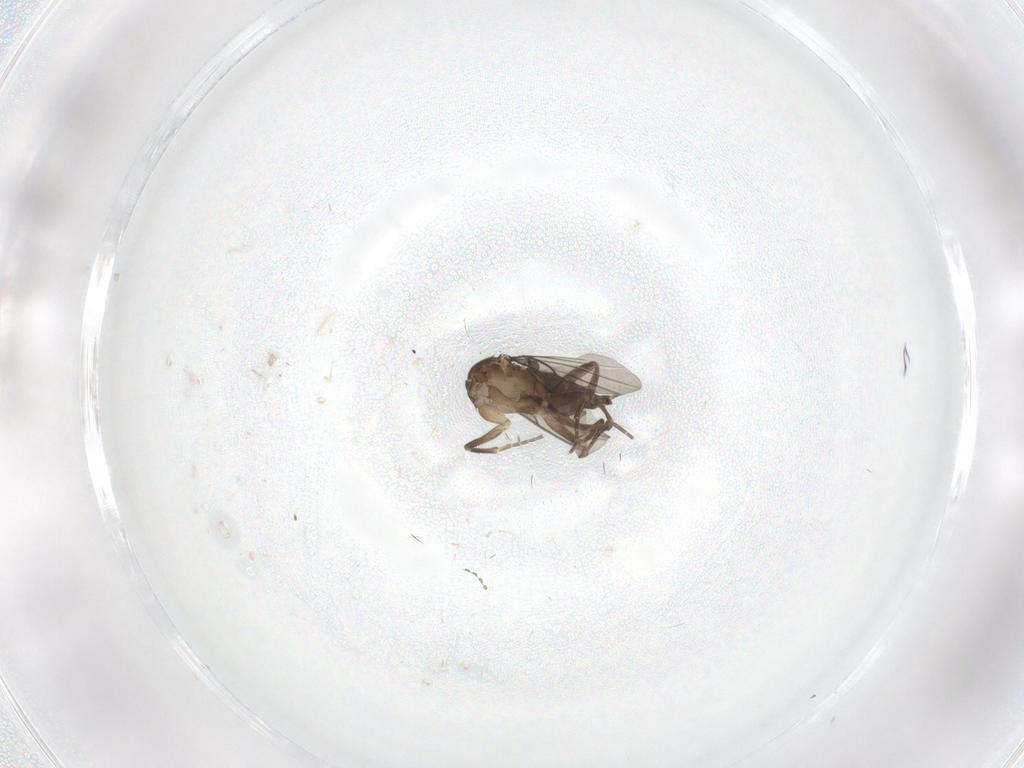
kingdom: Animalia
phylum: Arthropoda
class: Insecta
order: Diptera
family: Phoridae
